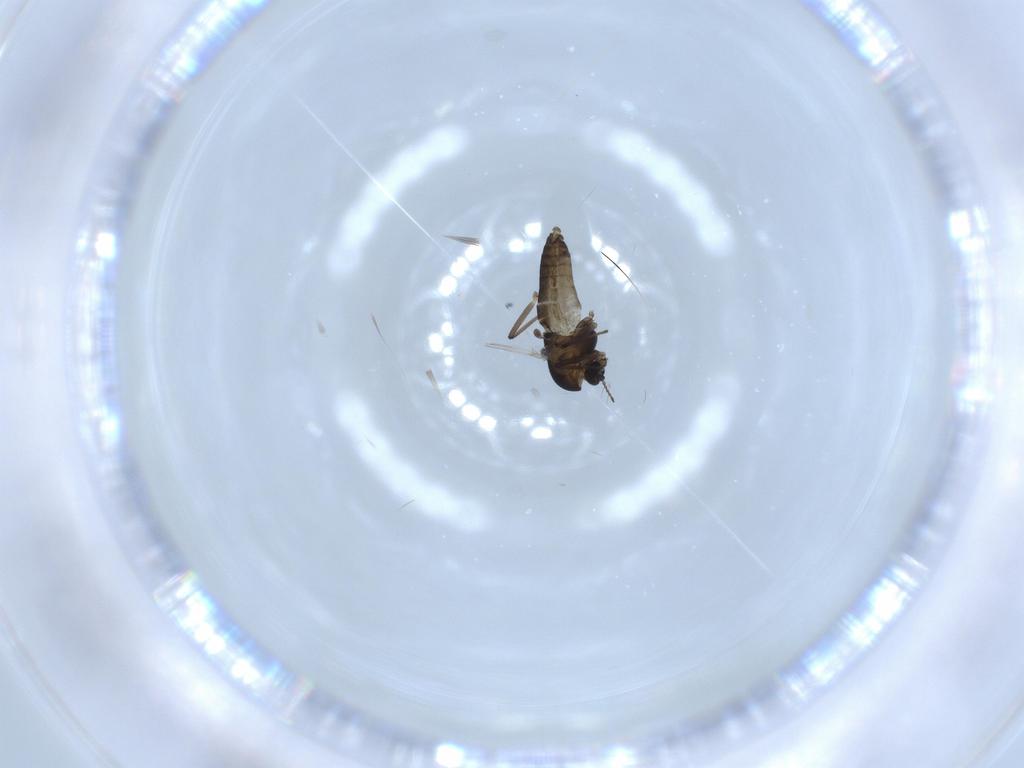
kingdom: Animalia
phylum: Arthropoda
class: Insecta
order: Diptera
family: Chironomidae
